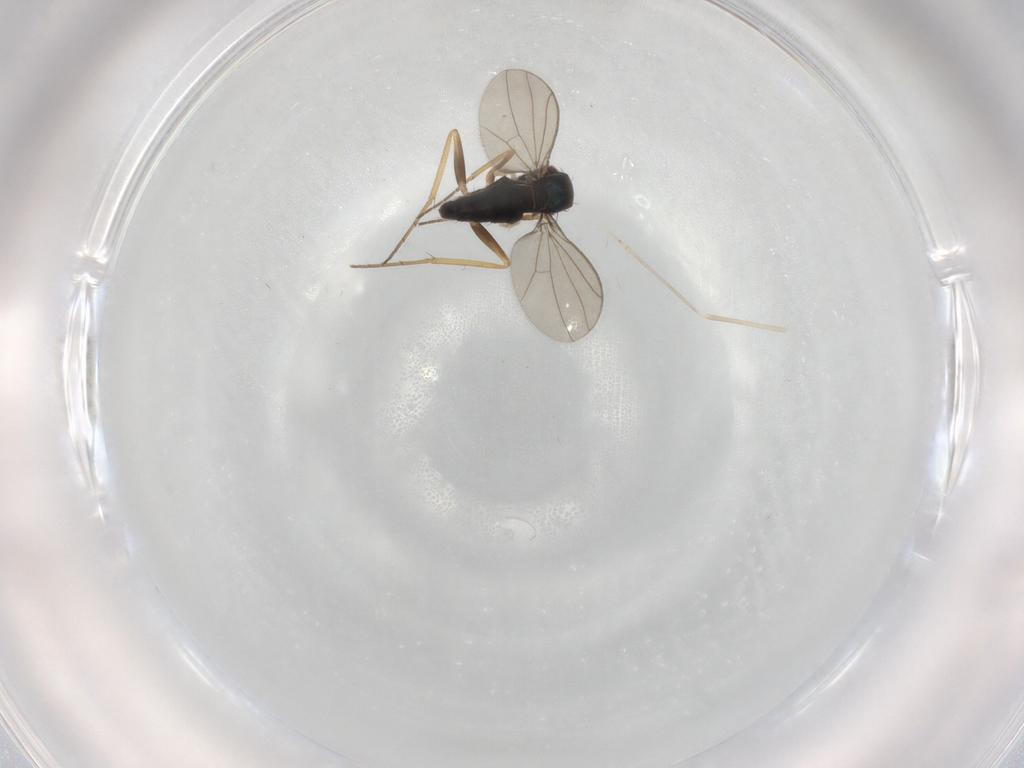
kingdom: Animalia
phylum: Arthropoda
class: Insecta
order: Diptera
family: Dolichopodidae
